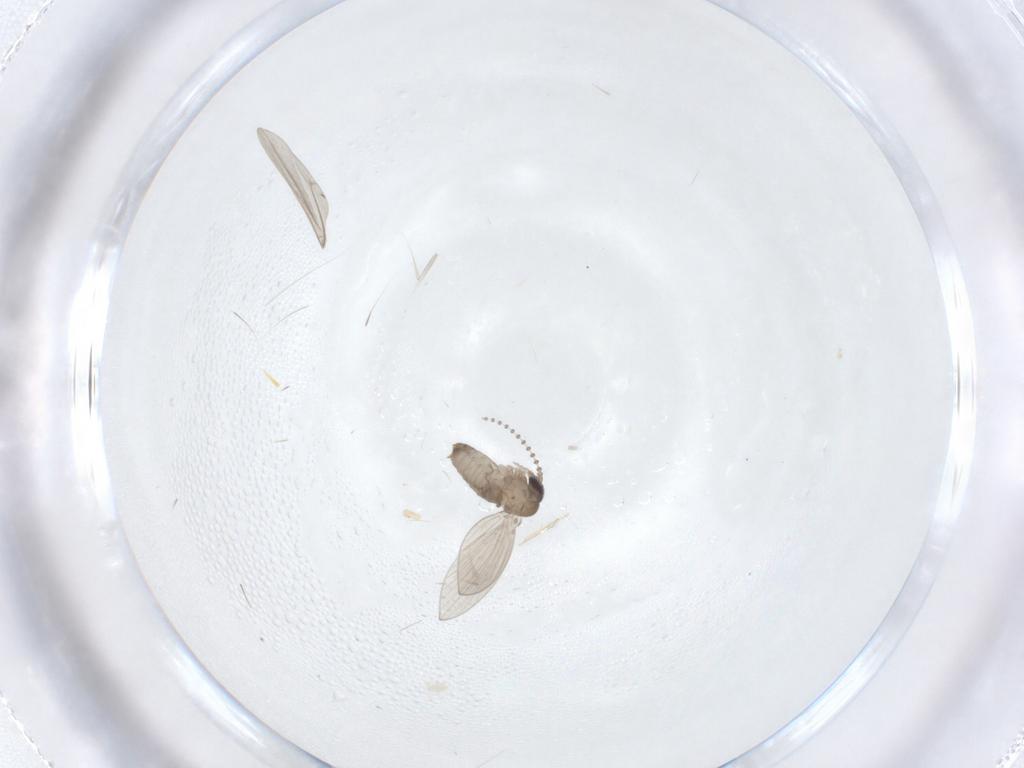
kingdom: Animalia
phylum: Arthropoda
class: Insecta
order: Diptera
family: Psychodidae
